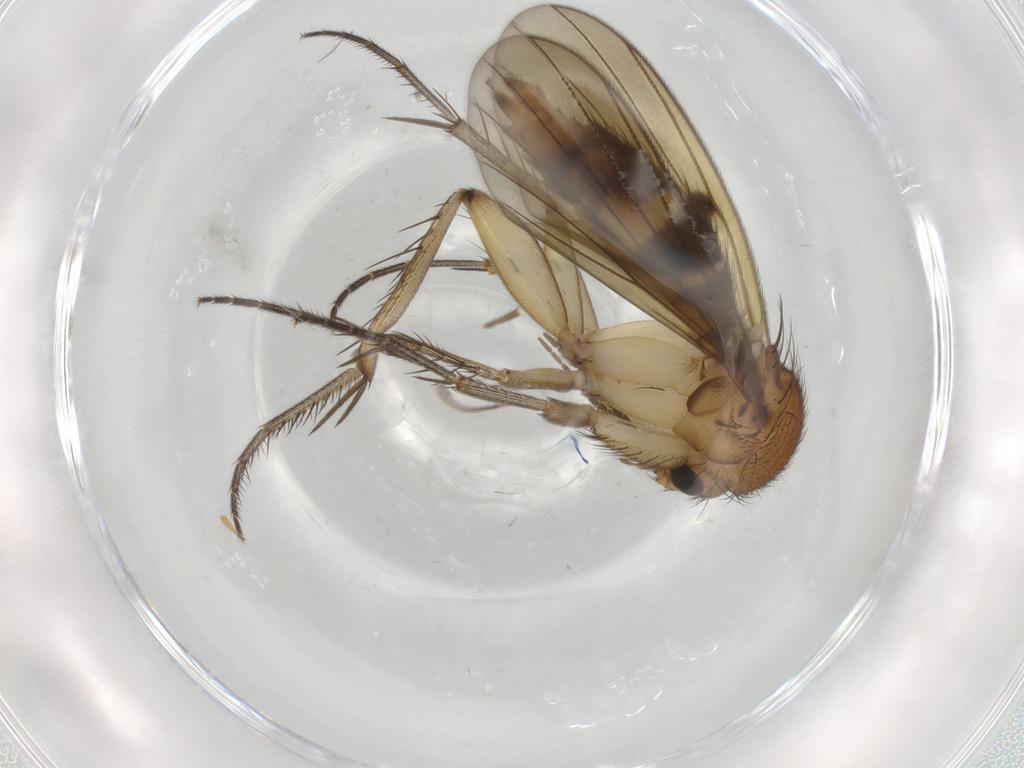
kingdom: Animalia
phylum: Arthropoda
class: Insecta
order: Diptera
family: Mycetophilidae
